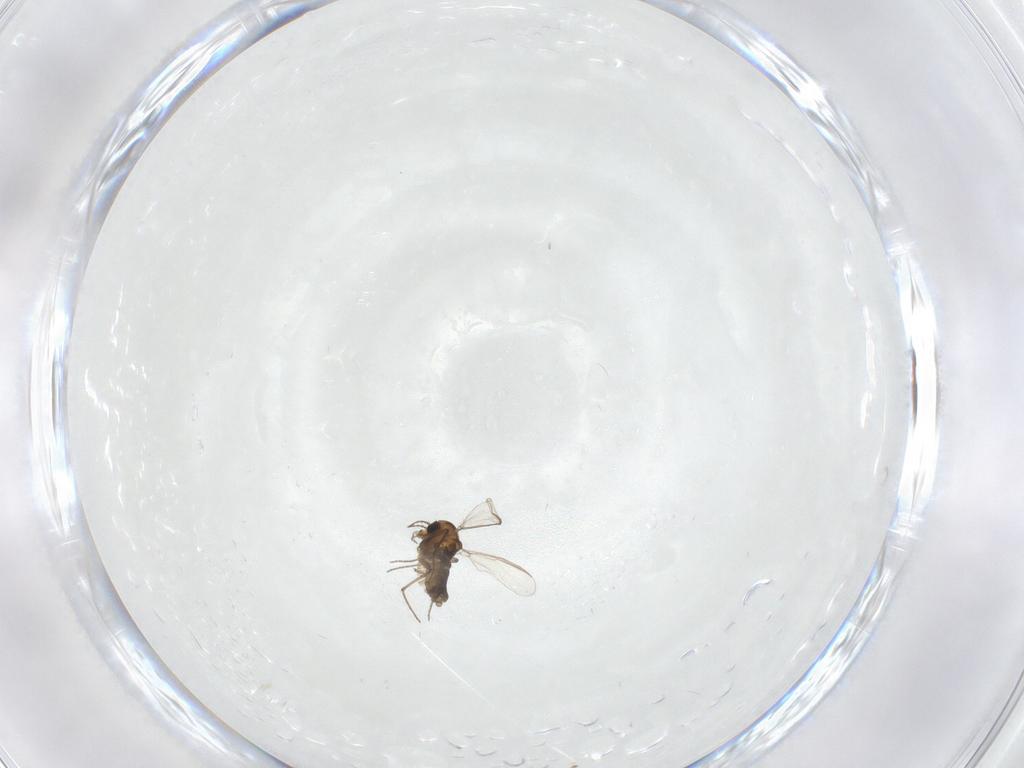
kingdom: Animalia
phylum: Arthropoda
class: Insecta
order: Diptera
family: Chironomidae
